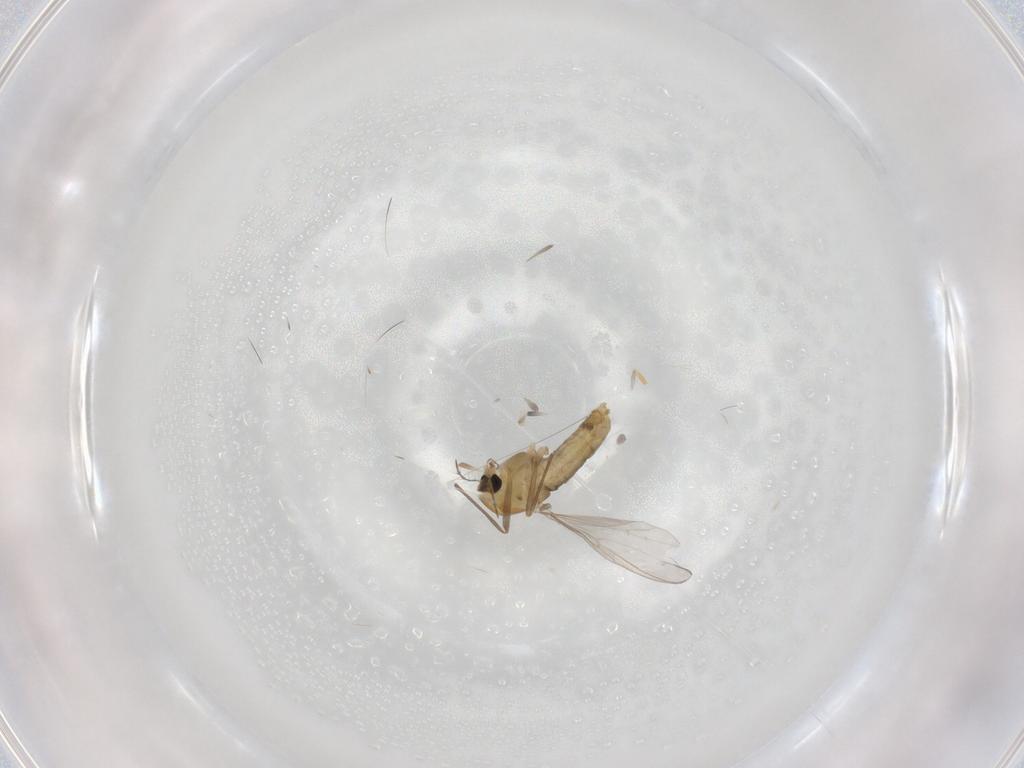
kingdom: Animalia
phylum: Arthropoda
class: Insecta
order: Diptera
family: Chironomidae
